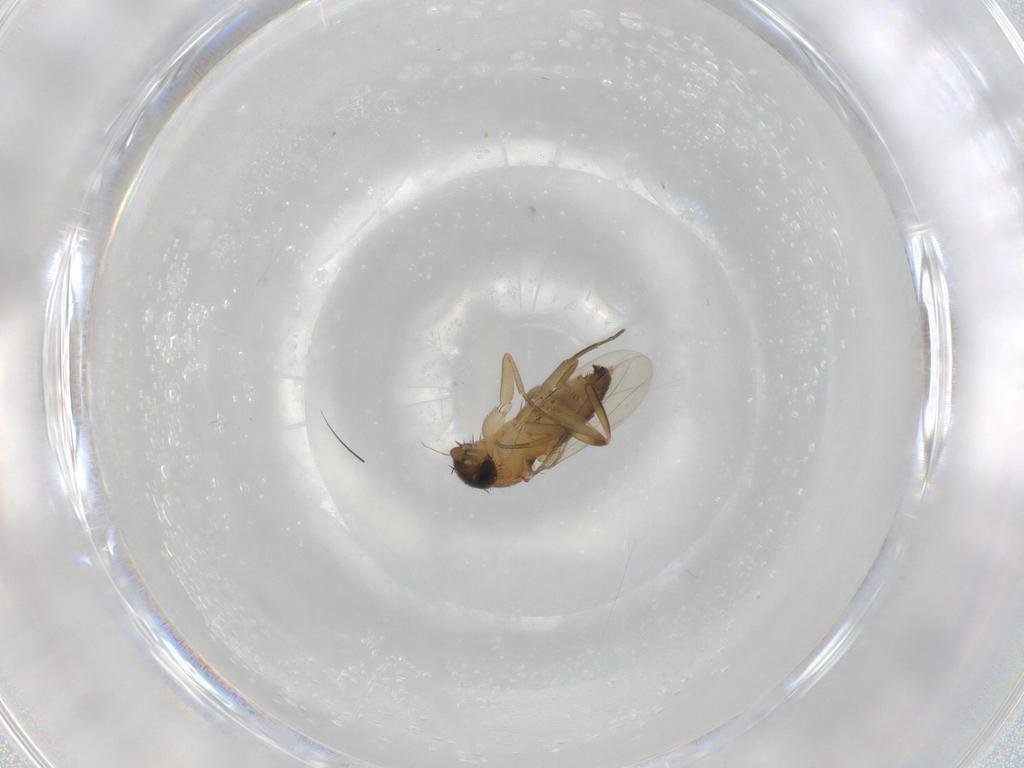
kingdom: Animalia
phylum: Arthropoda
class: Insecta
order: Diptera
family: Phoridae
